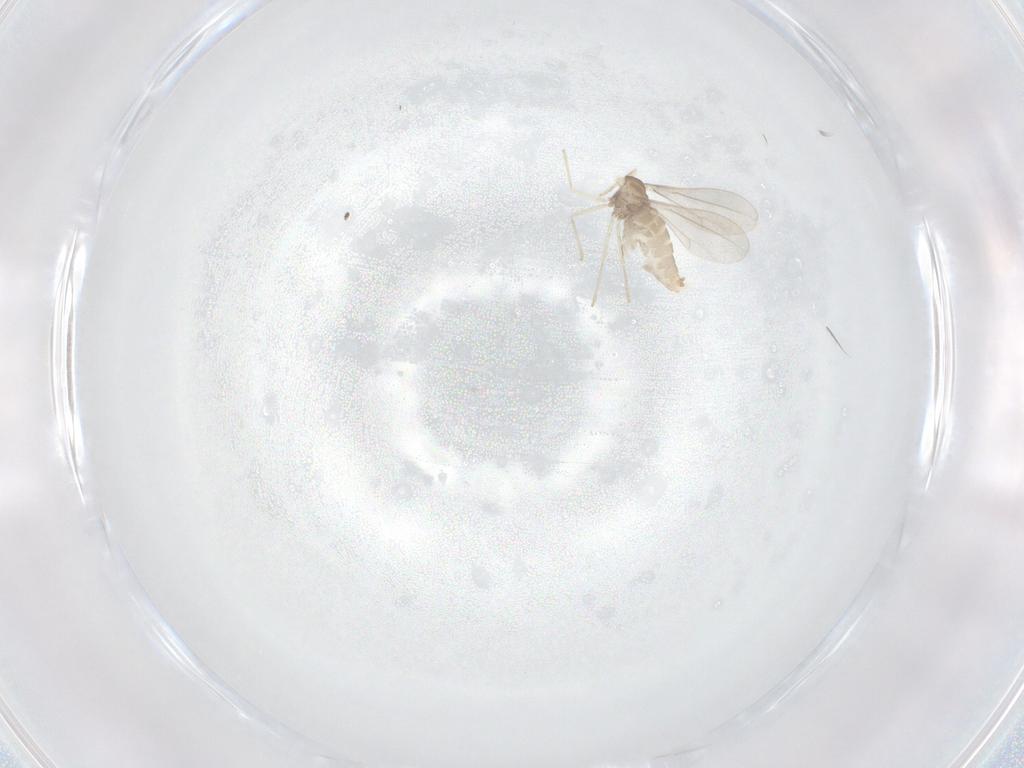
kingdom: Animalia
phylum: Arthropoda
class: Insecta
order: Diptera
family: Cecidomyiidae
